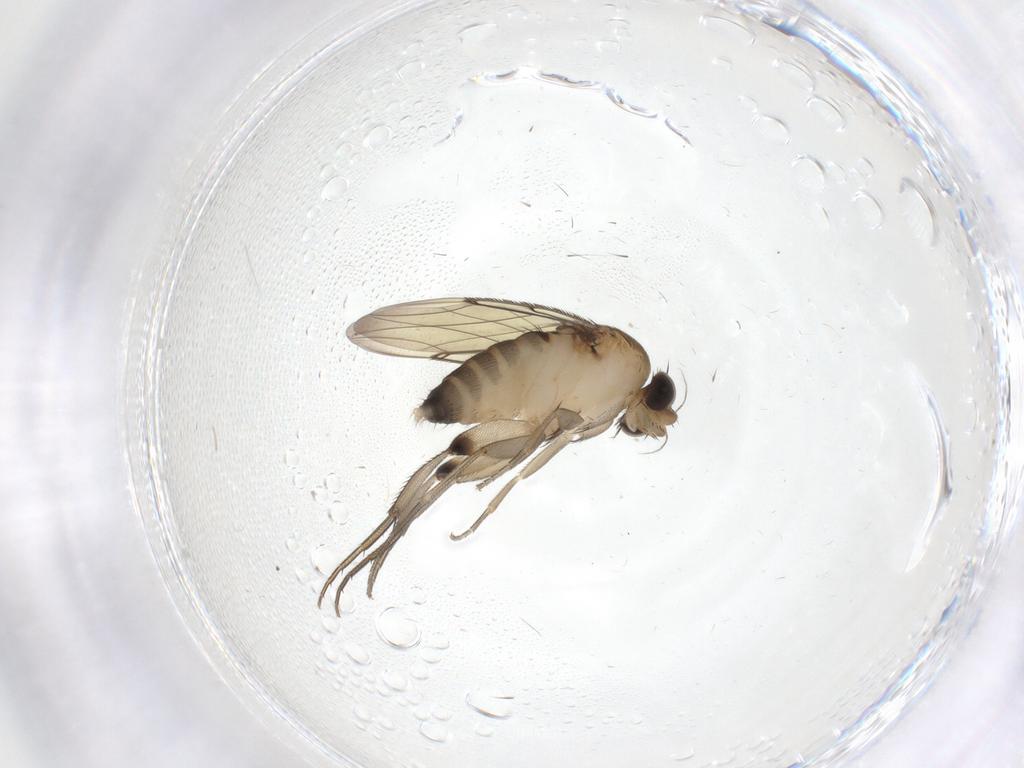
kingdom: Animalia
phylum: Arthropoda
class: Insecta
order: Diptera
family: Phoridae
